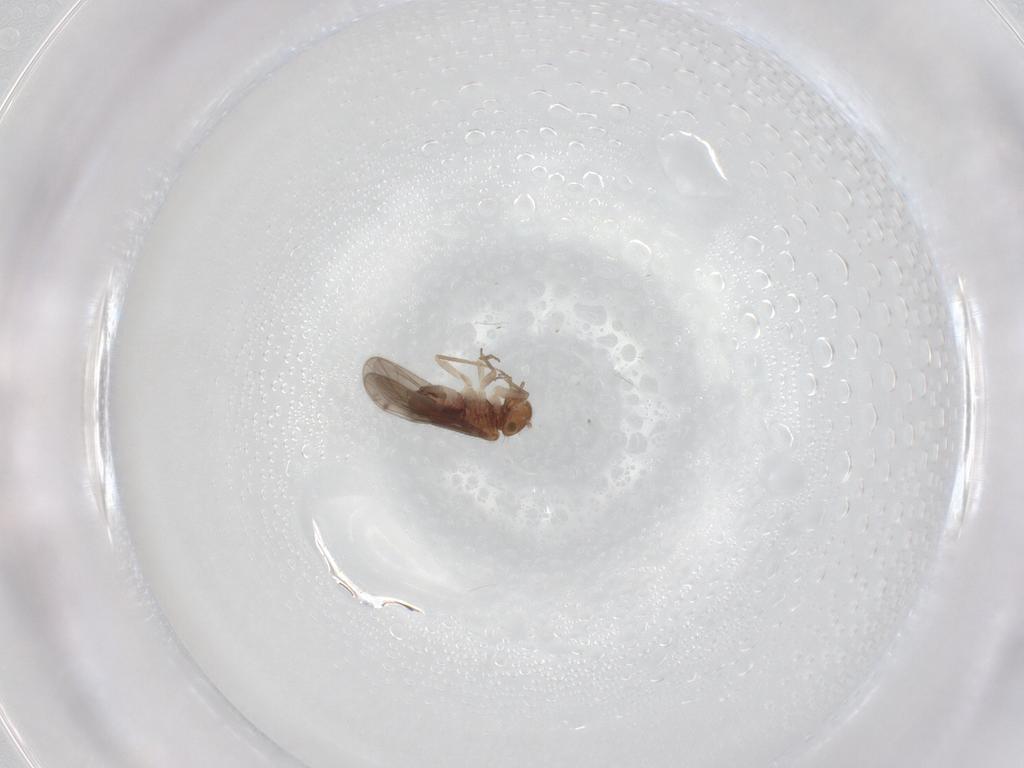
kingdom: Animalia
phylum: Arthropoda
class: Insecta
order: Psocodea
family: Ectopsocidae
